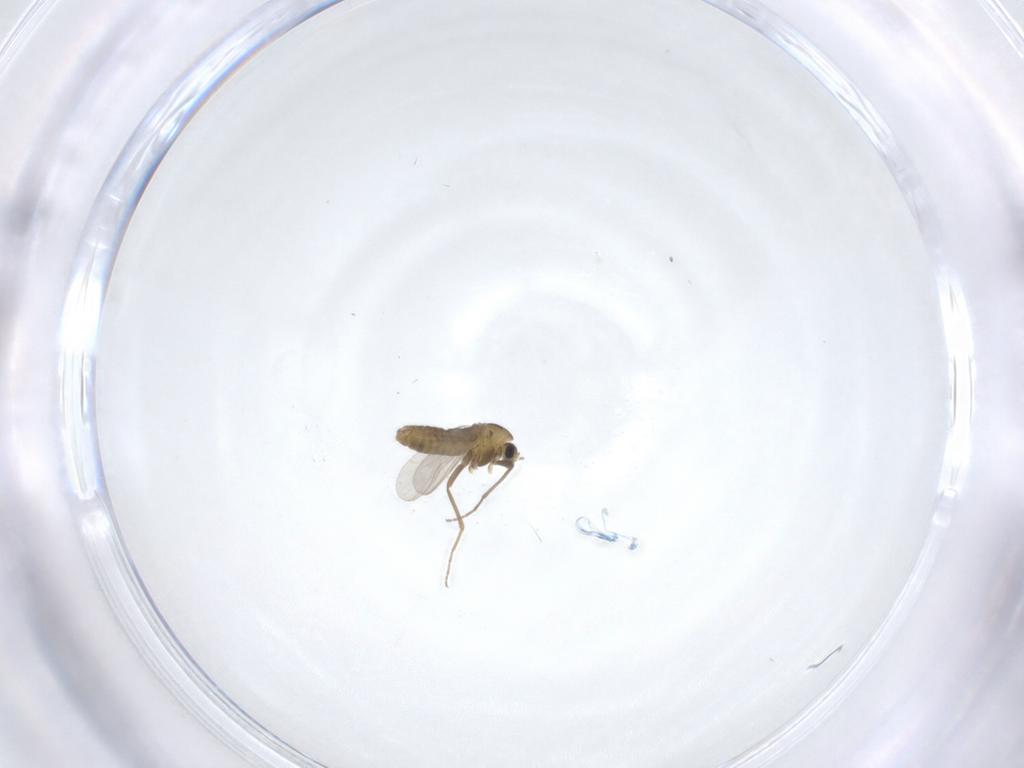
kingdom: Animalia
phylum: Arthropoda
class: Insecta
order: Diptera
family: Chironomidae
